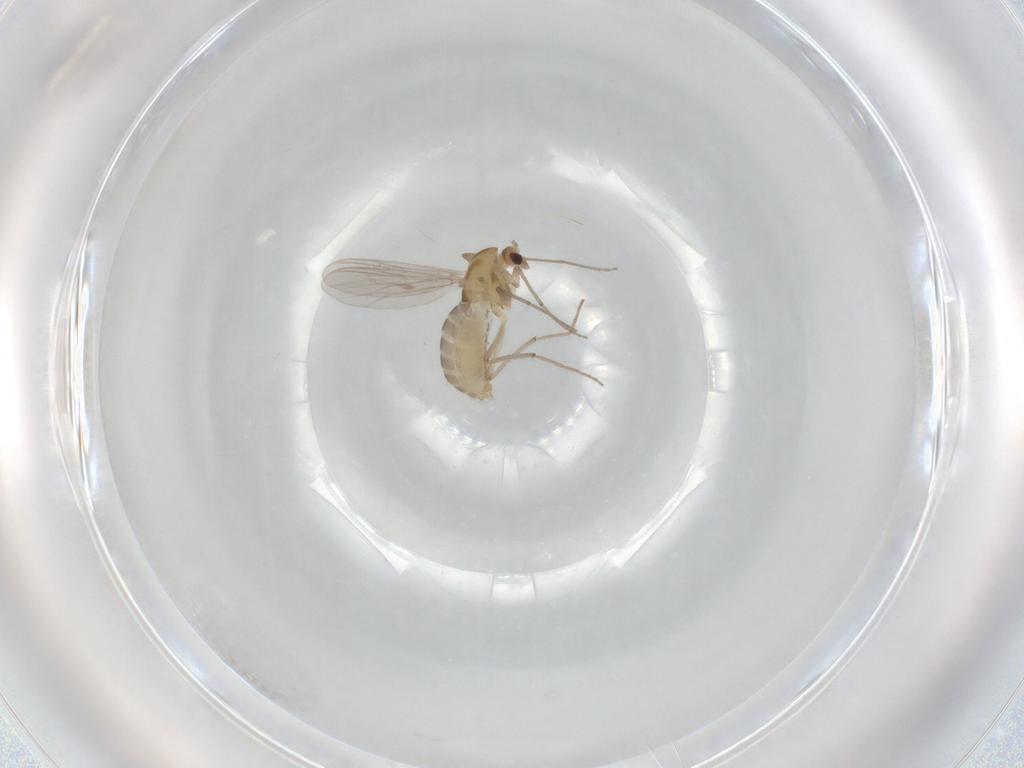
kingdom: Animalia
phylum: Arthropoda
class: Insecta
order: Diptera
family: Chironomidae
